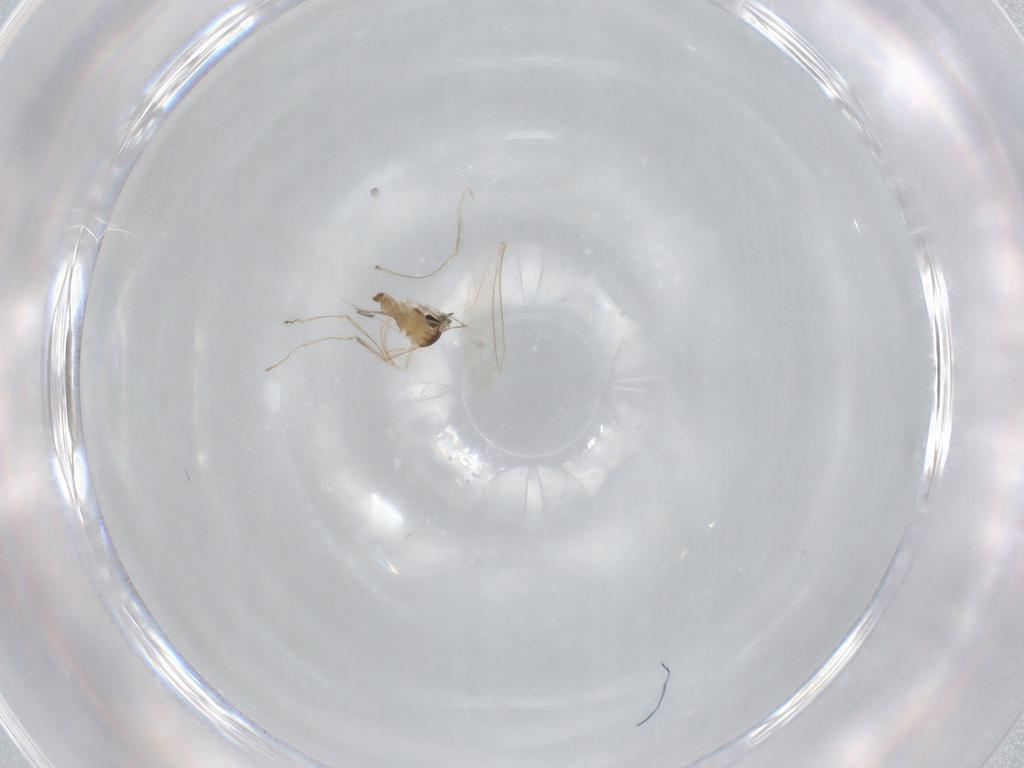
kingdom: Animalia
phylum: Arthropoda
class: Insecta
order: Diptera
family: Cecidomyiidae
